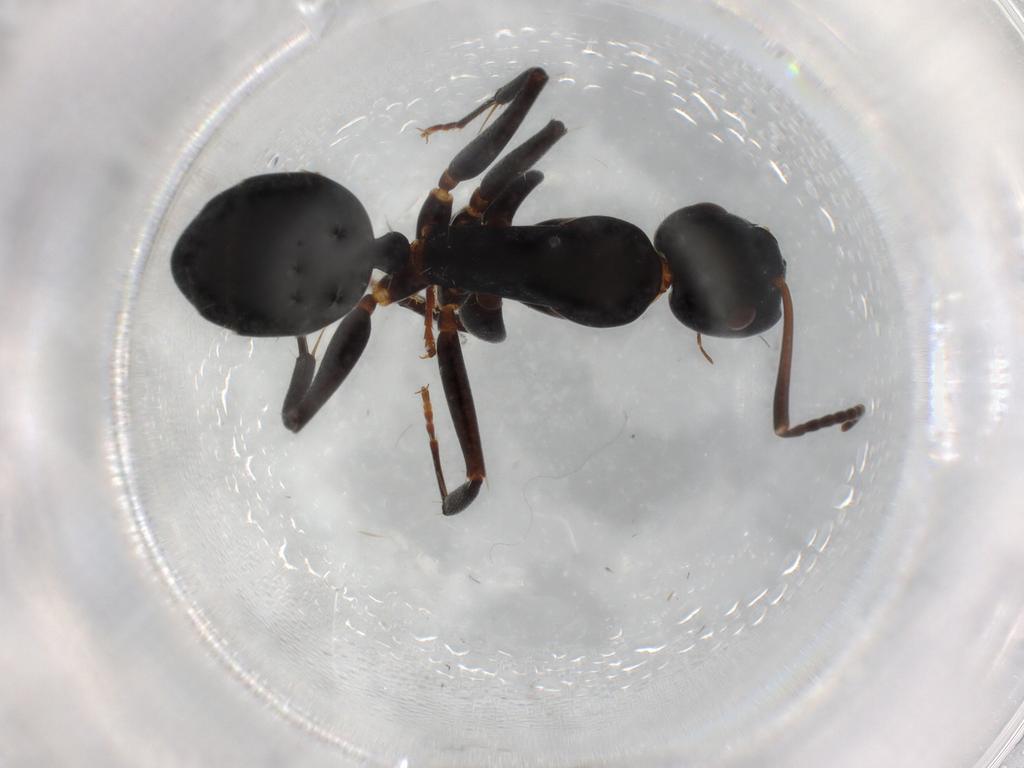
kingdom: Animalia
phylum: Arthropoda
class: Insecta
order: Hymenoptera
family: Formicidae
